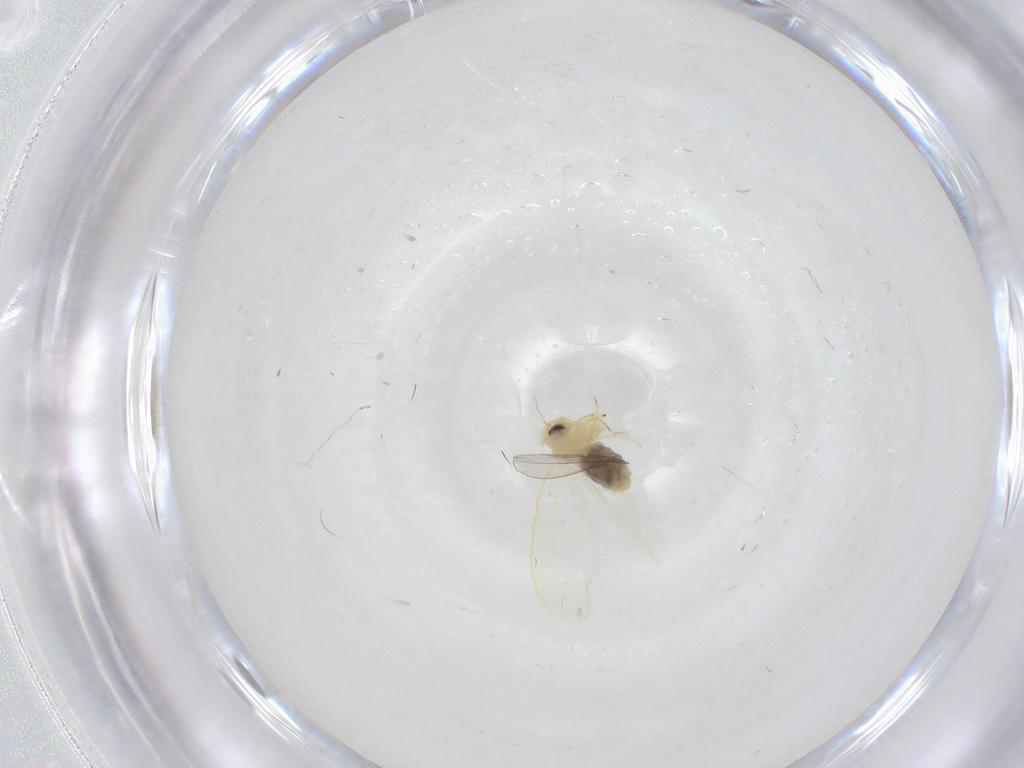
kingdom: Animalia
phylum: Arthropoda
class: Insecta
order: Hemiptera
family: Aleyrodidae
